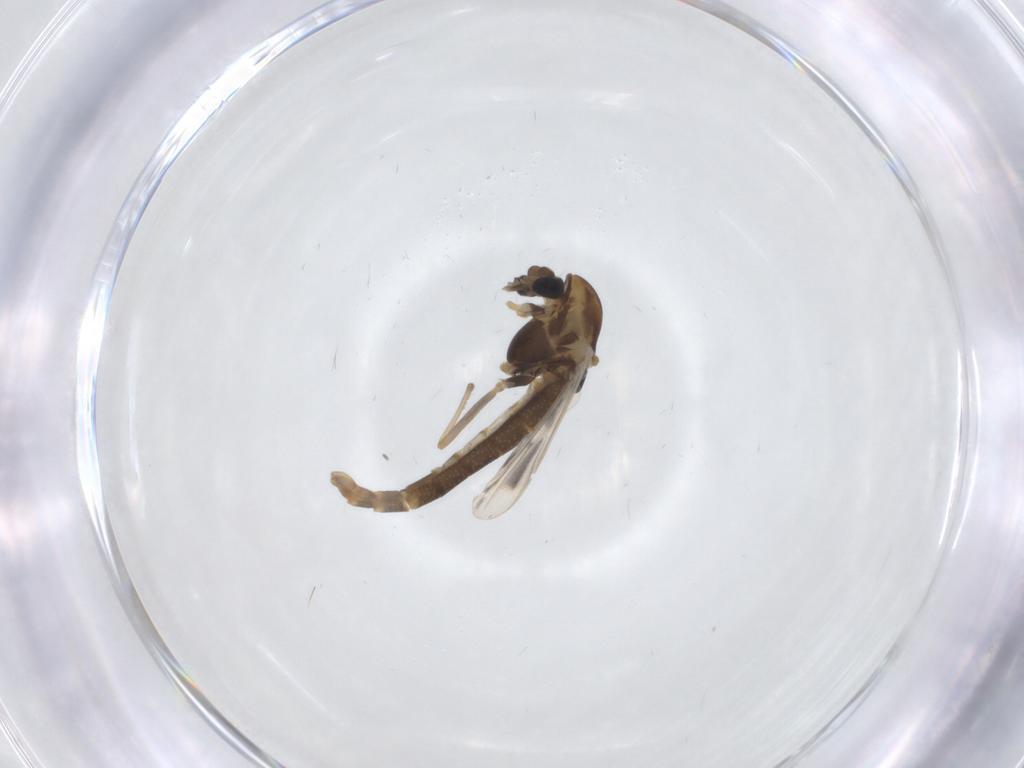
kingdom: Animalia
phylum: Arthropoda
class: Insecta
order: Diptera
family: Chironomidae
